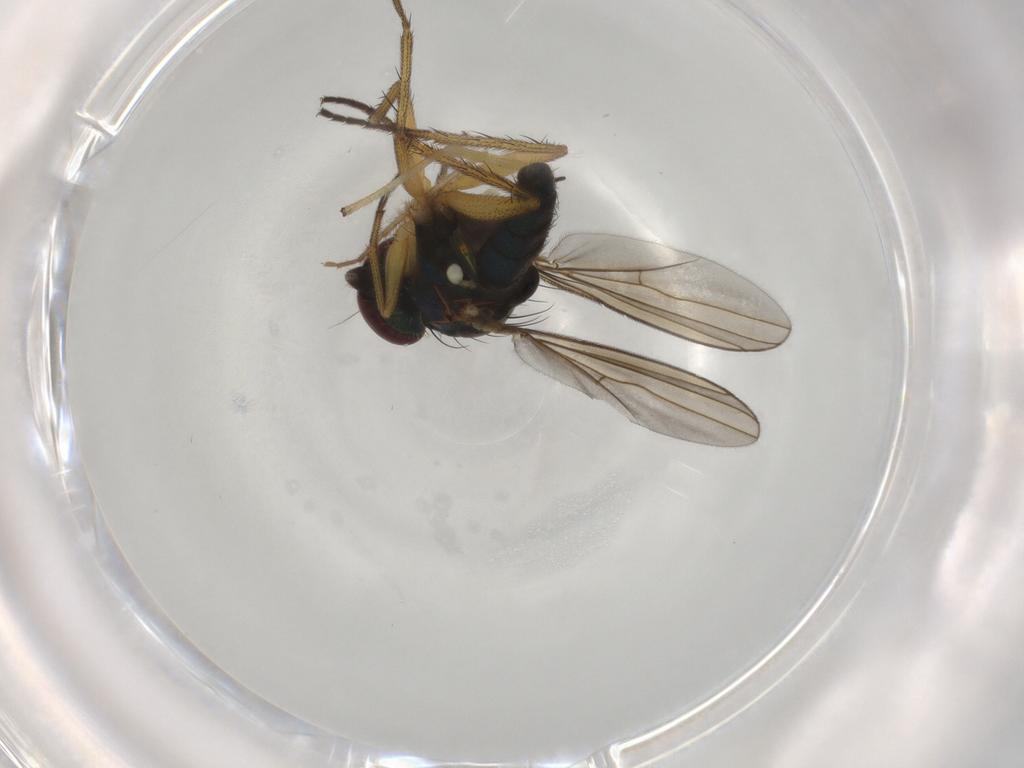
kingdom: Animalia
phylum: Arthropoda
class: Insecta
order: Diptera
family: Dolichopodidae
